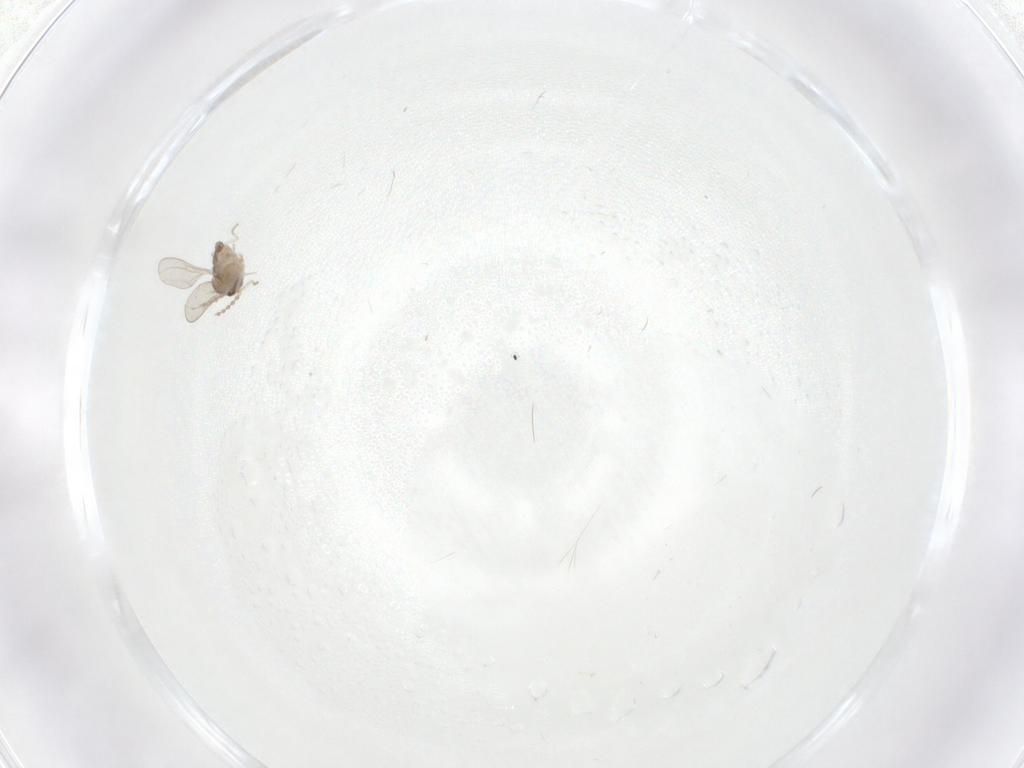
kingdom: Animalia
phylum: Arthropoda
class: Insecta
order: Diptera
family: Tipulidae
